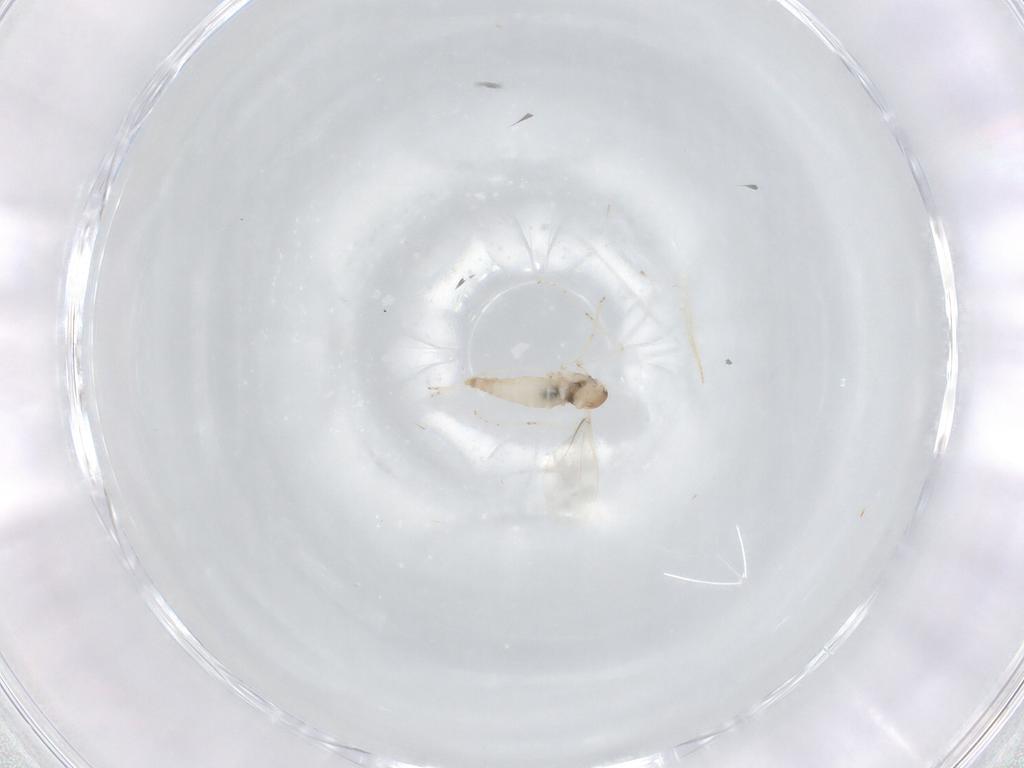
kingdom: Animalia
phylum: Arthropoda
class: Insecta
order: Diptera
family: Cecidomyiidae
